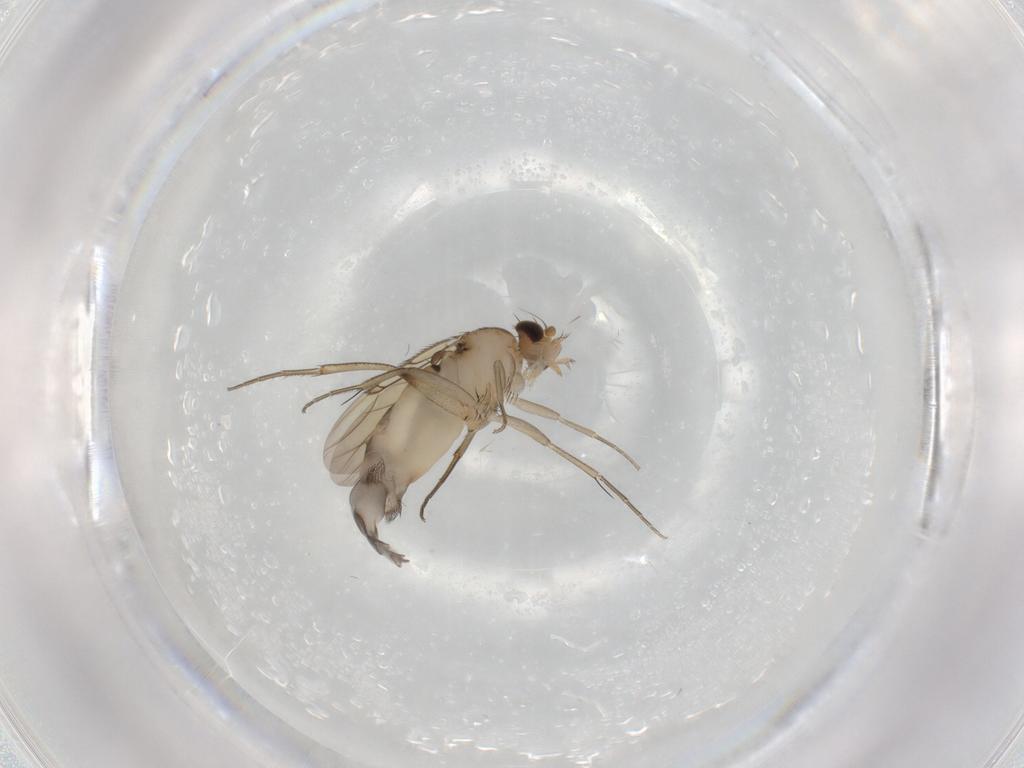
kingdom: Animalia
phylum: Arthropoda
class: Insecta
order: Diptera
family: Phoridae
